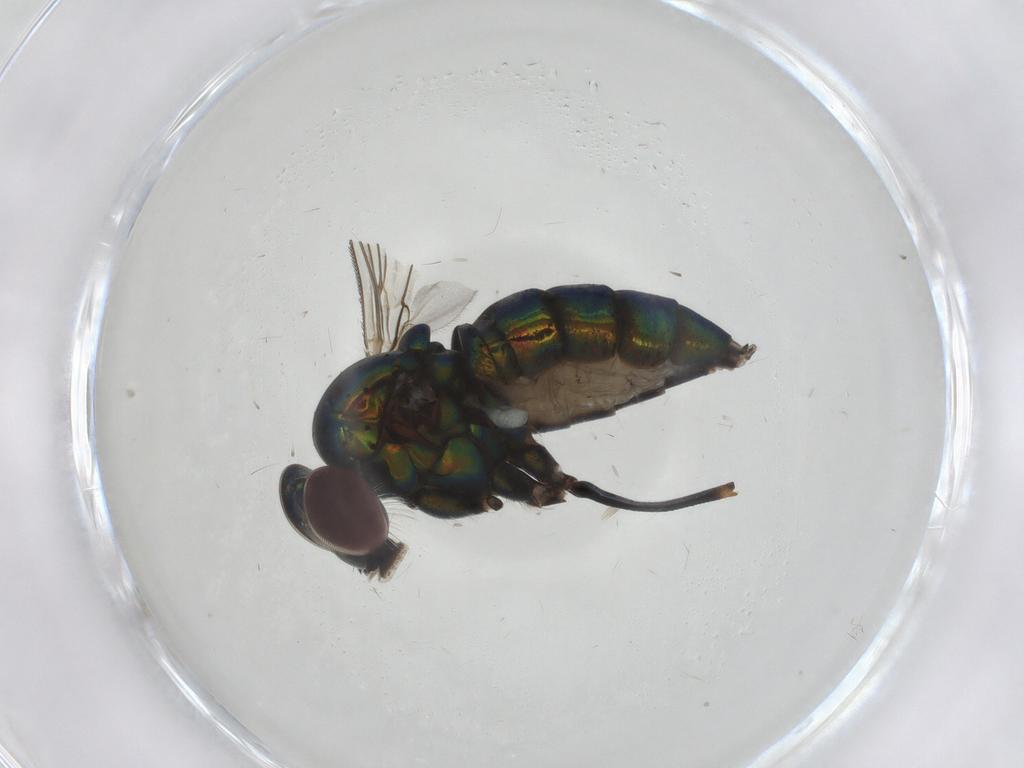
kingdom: Animalia
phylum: Arthropoda
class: Insecta
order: Diptera
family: Dolichopodidae
